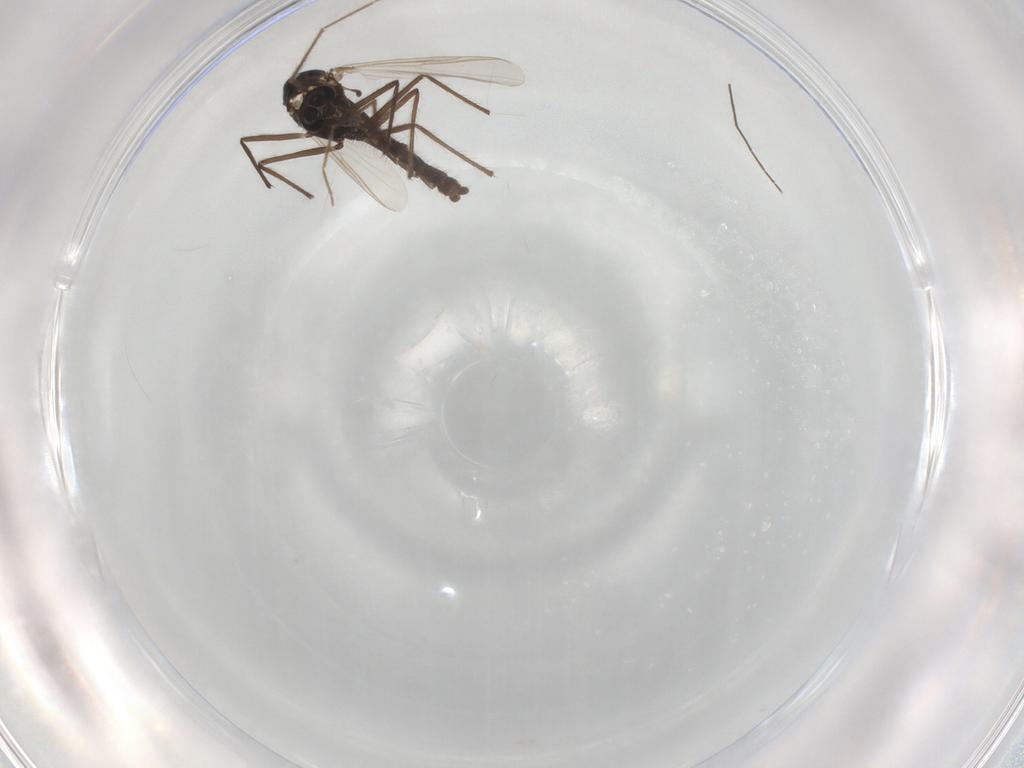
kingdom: Animalia
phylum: Arthropoda
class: Insecta
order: Diptera
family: Chironomidae
